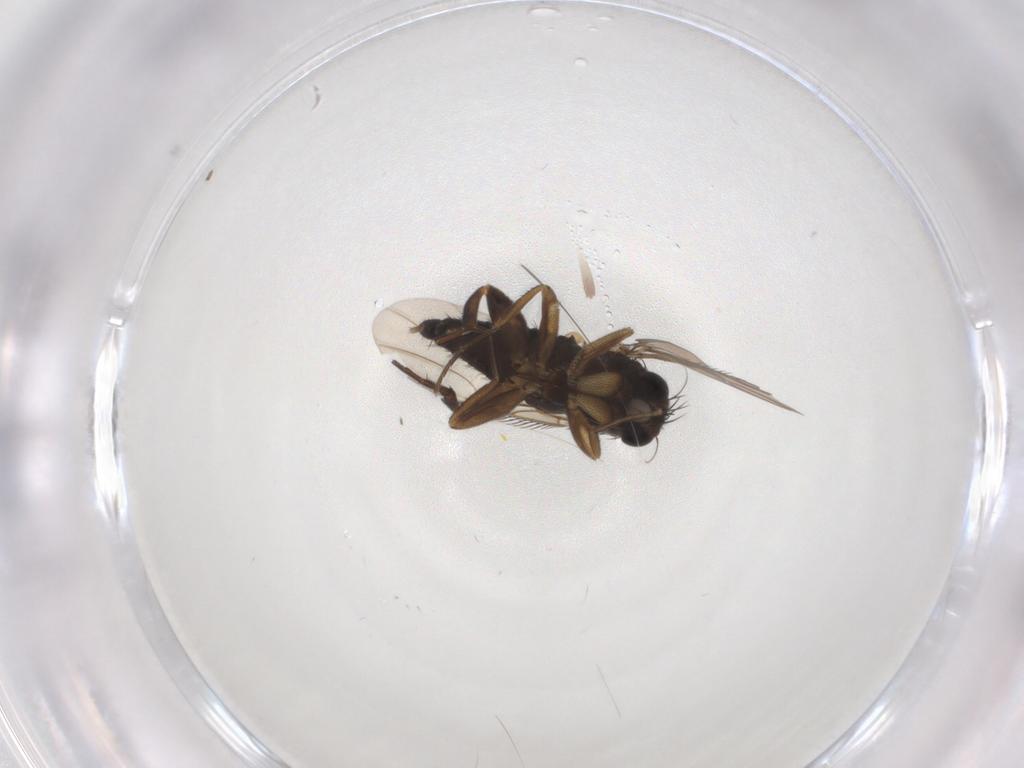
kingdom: Animalia
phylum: Arthropoda
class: Insecta
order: Diptera
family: Phoridae
